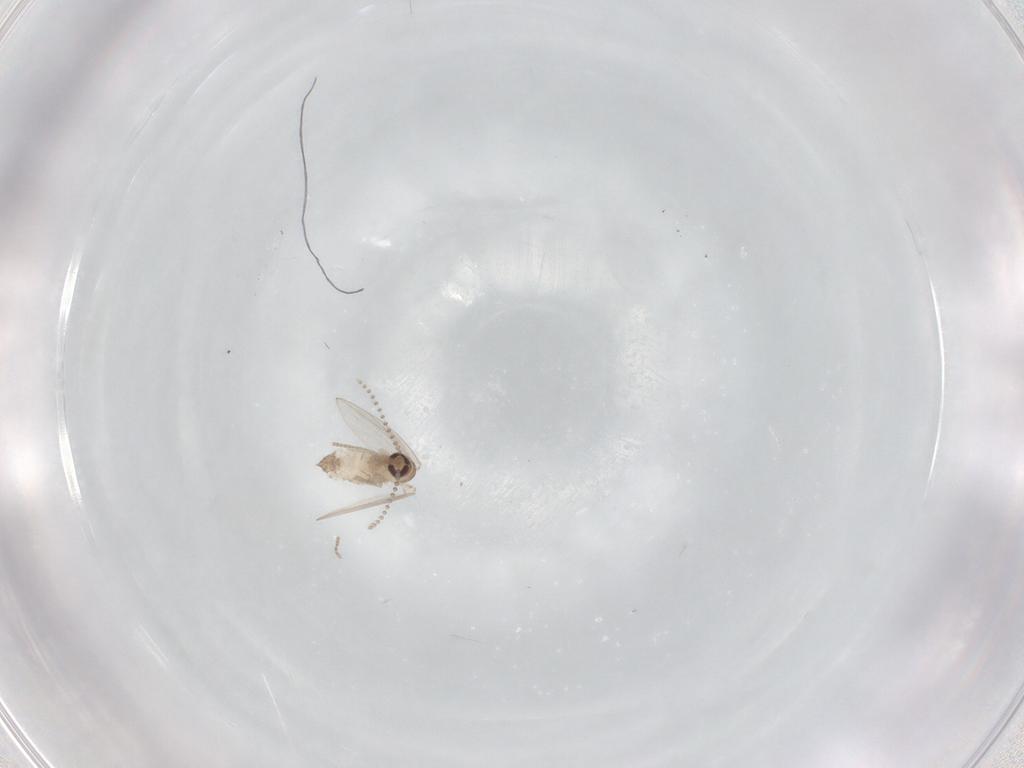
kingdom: Animalia
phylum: Arthropoda
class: Insecta
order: Diptera
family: Psychodidae
